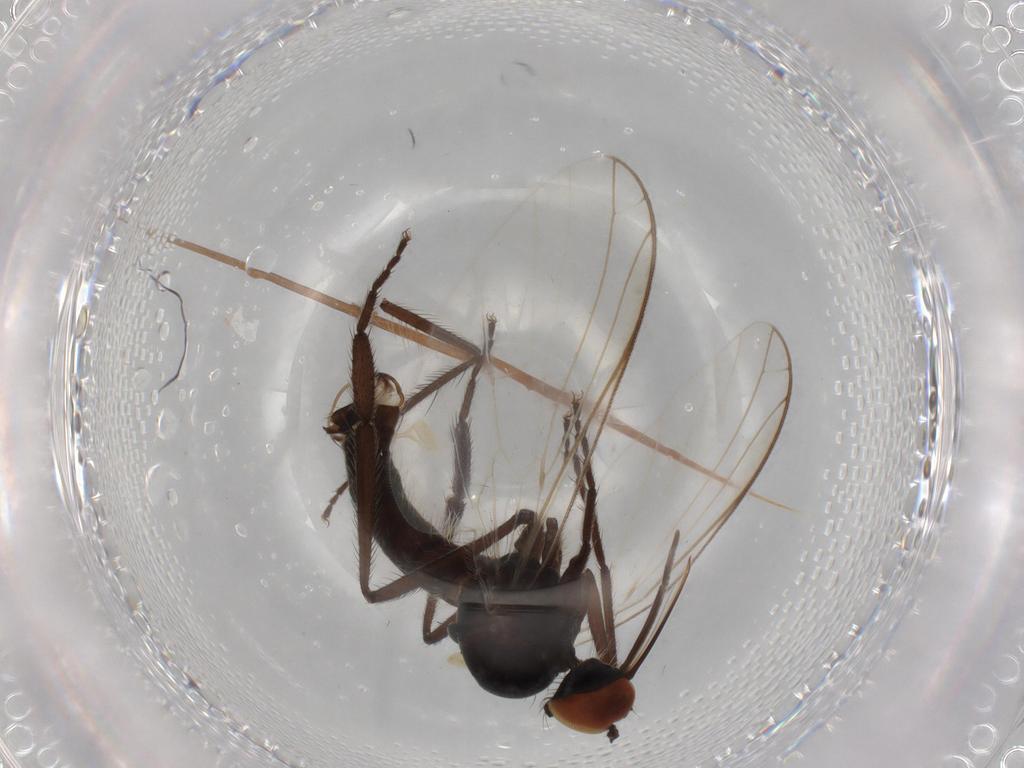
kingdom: Animalia
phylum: Arthropoda
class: Insecta
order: Diptera
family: Empididae
